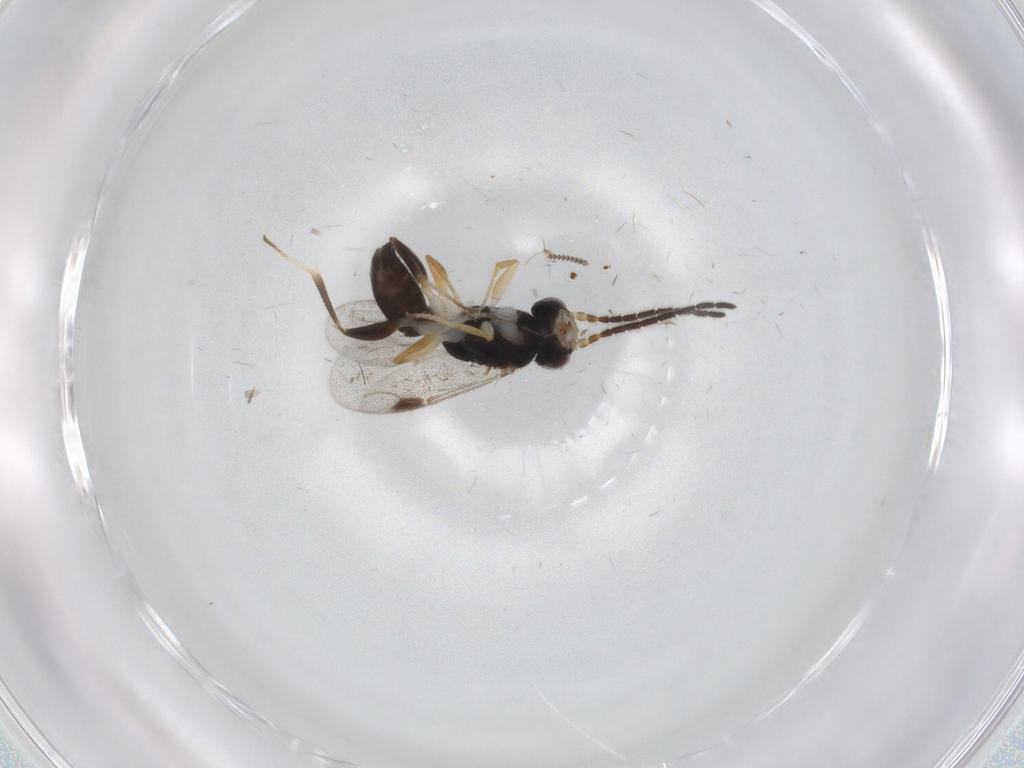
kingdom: Animalia
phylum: Arthropoda
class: Insecta
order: Hymenoptera
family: Dryinidae
